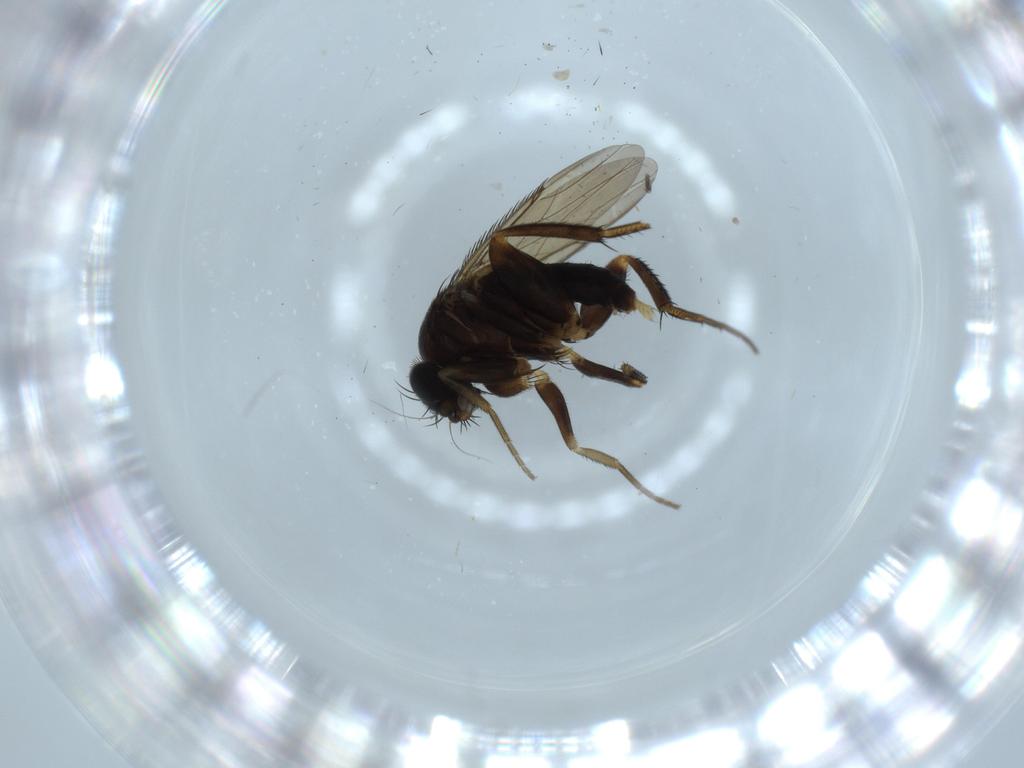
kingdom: Animalia
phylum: Arthropoda
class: Insecta
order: Diptera
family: Phoridae
